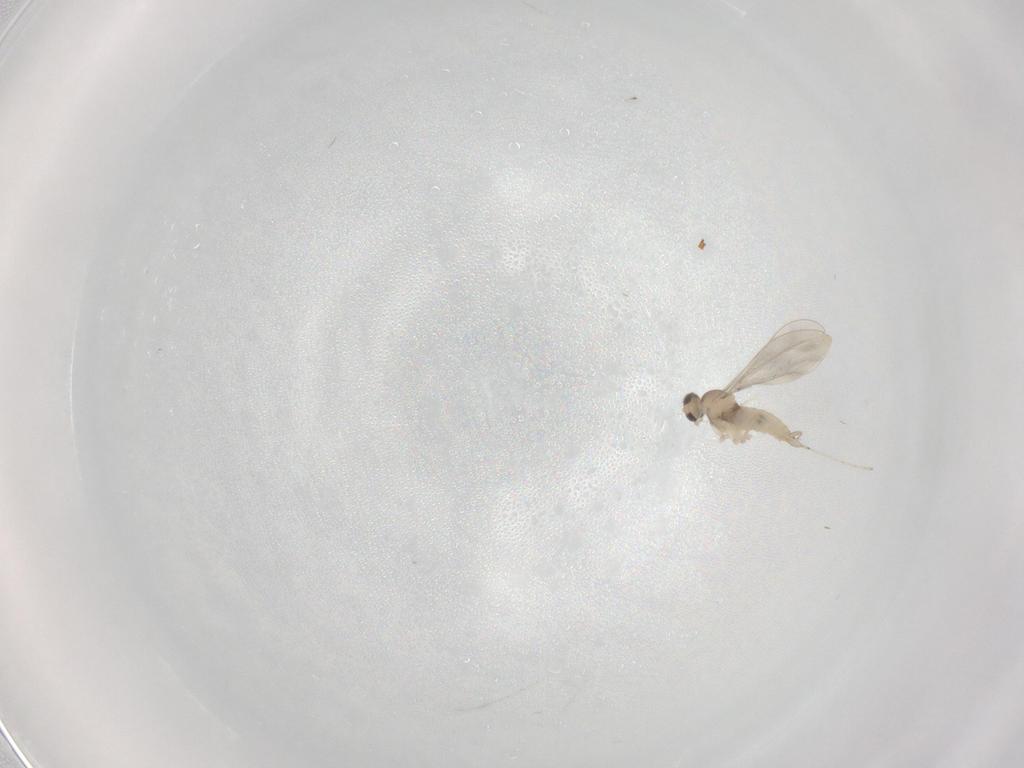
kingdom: Animalia
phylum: Arthropoda
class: Insecta
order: Diptera
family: Cecidomyiidae
